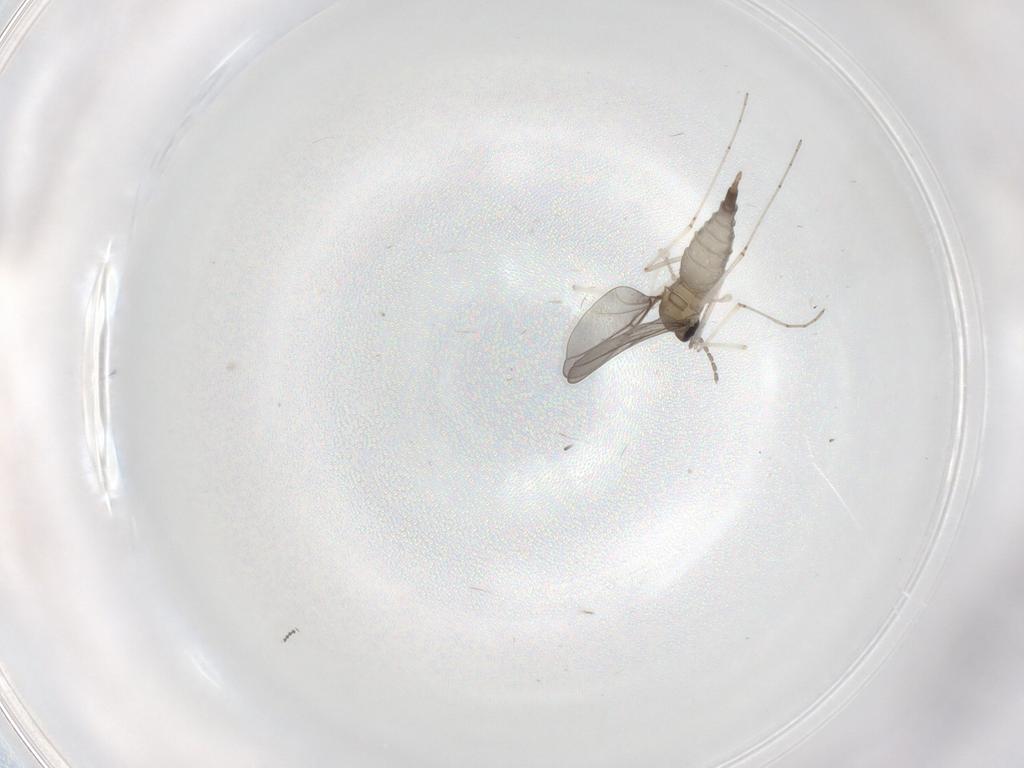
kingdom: Animalia
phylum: Arthropoda
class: Insecta
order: Diptera
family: Cecidomyiidae
